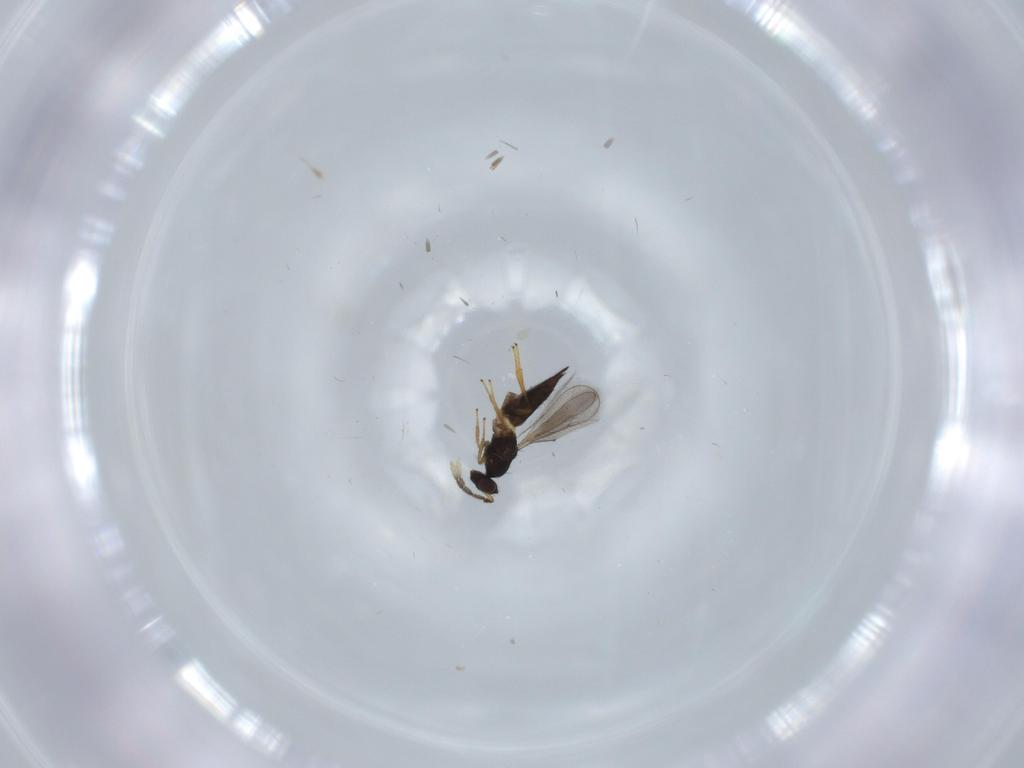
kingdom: Animalia
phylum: Arthropoda
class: Insecta
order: Hymenoptera
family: Eulophidae
